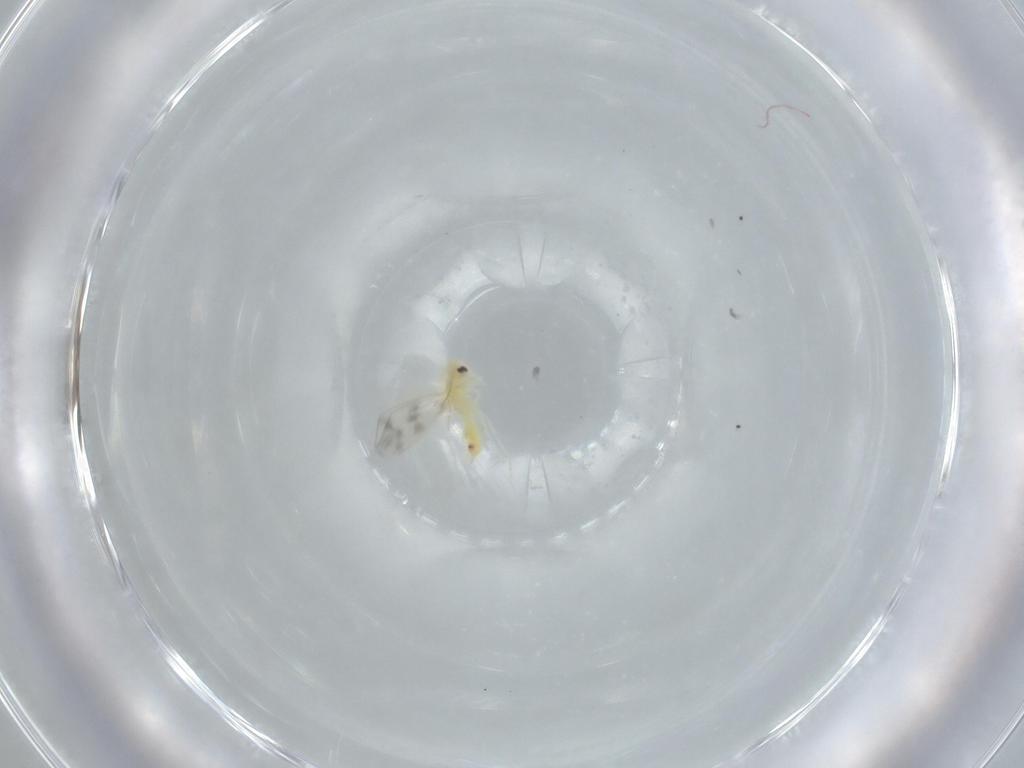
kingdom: Animalia
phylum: Arthropoda
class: Insecta
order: Hemiptera
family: Aleyrodidae
